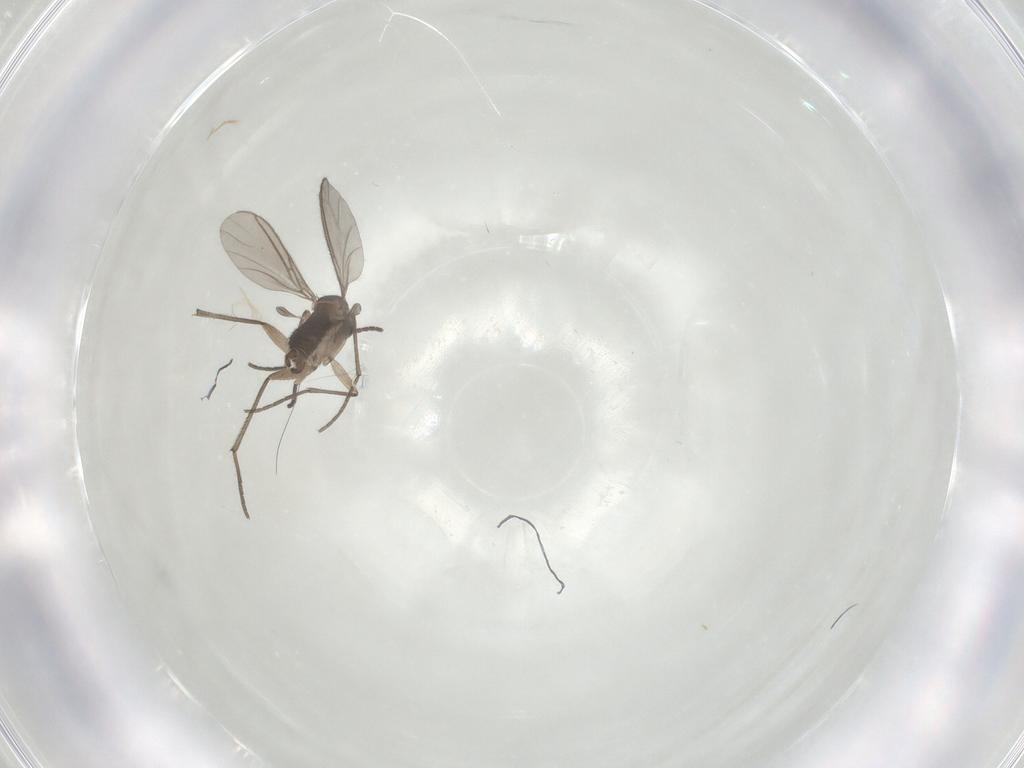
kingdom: Animalia
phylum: Arthropoda
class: Insecta
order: Diptera
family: Sciaridae
